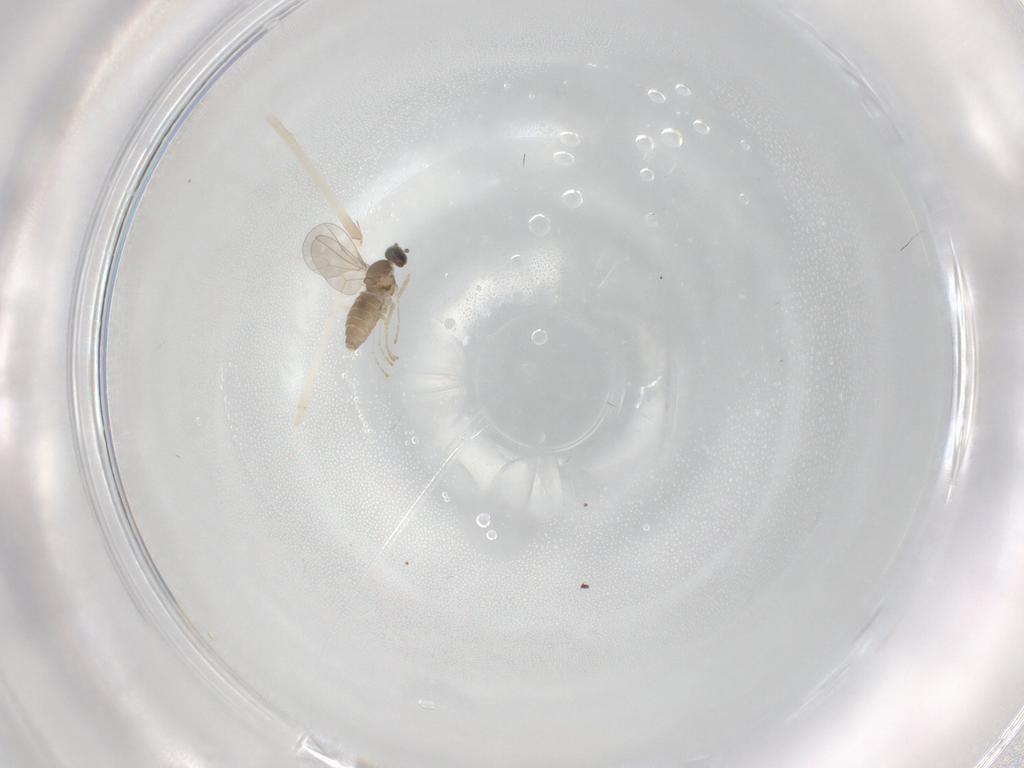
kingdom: Animalia
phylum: Arthropoda
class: Insecta
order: Diptera
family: Cecidomyiidae
